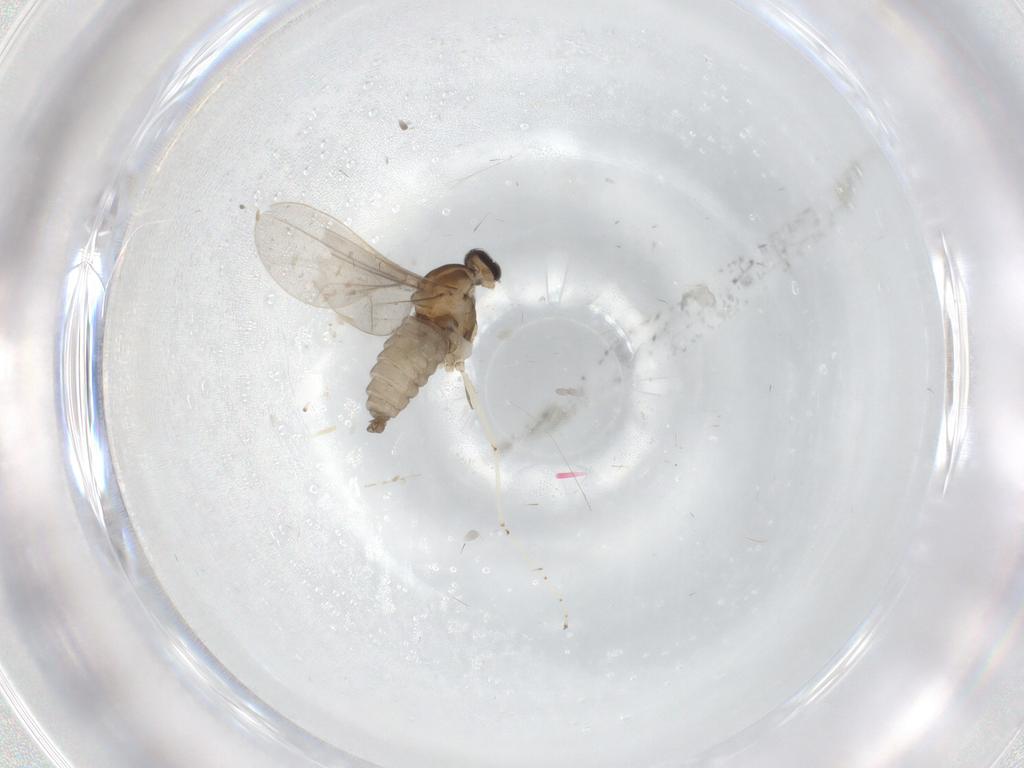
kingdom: Animalia
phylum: Arthropoda
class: Insecta
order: Diptera
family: Cecidomyiidae
